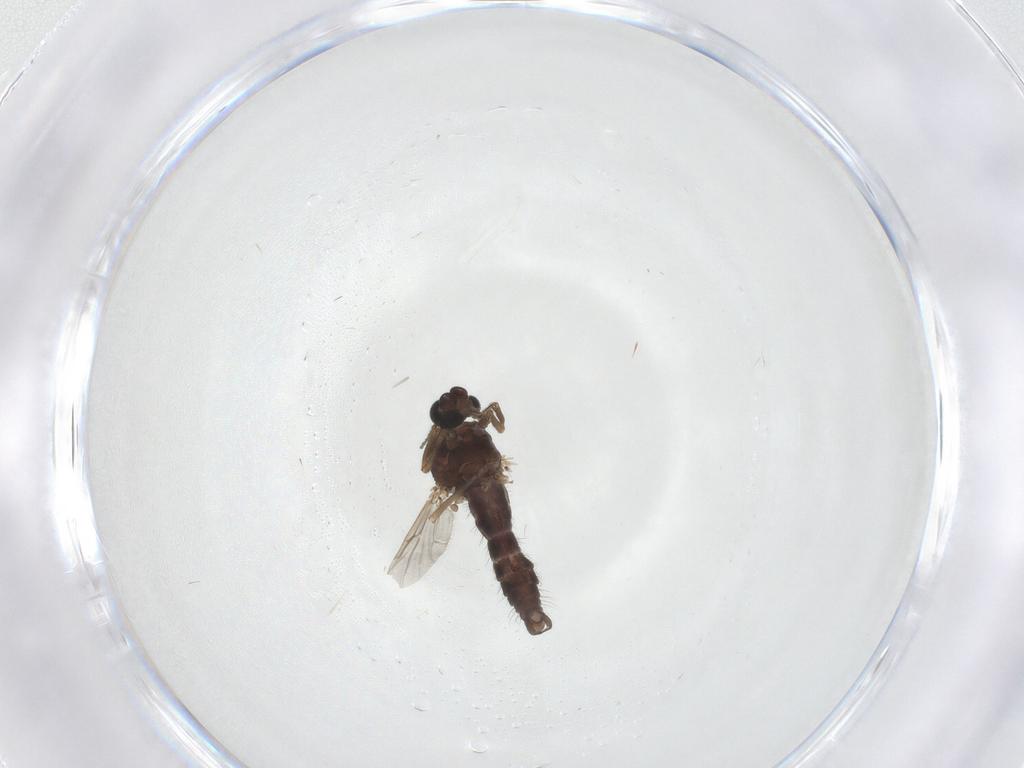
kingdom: Animalia
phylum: Arthropoda
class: Insecta
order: Diptera
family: Ceratopogonidae
